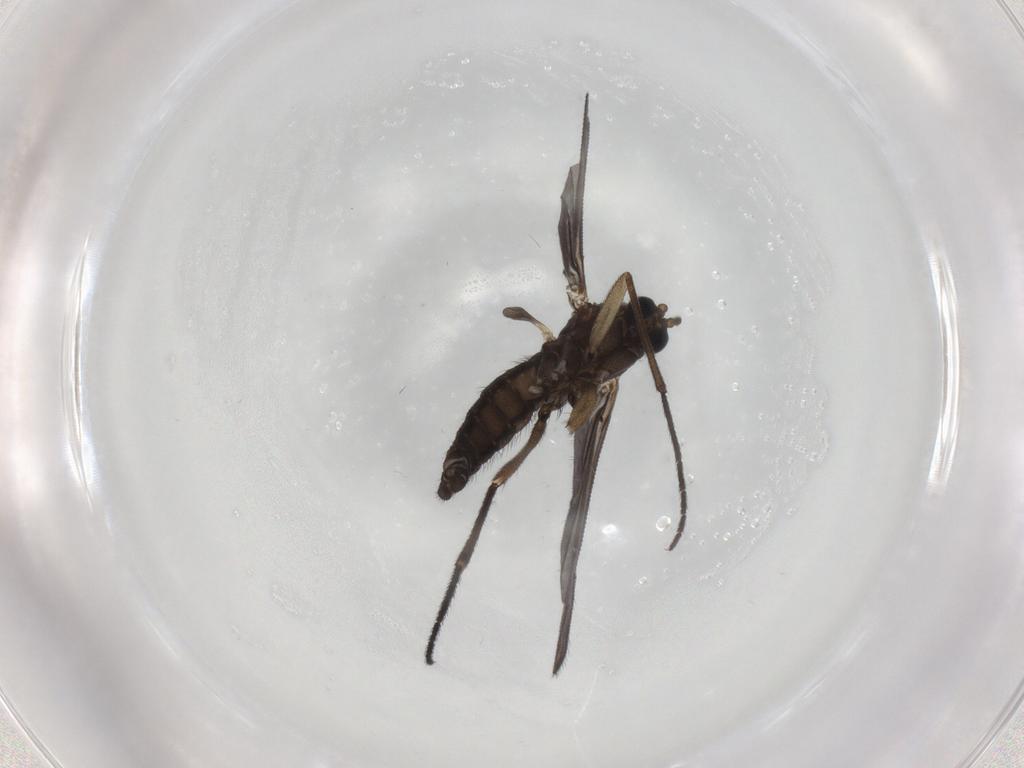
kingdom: Animalia
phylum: Arthropoda
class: Insecta
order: Diptera
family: Sciaridae
